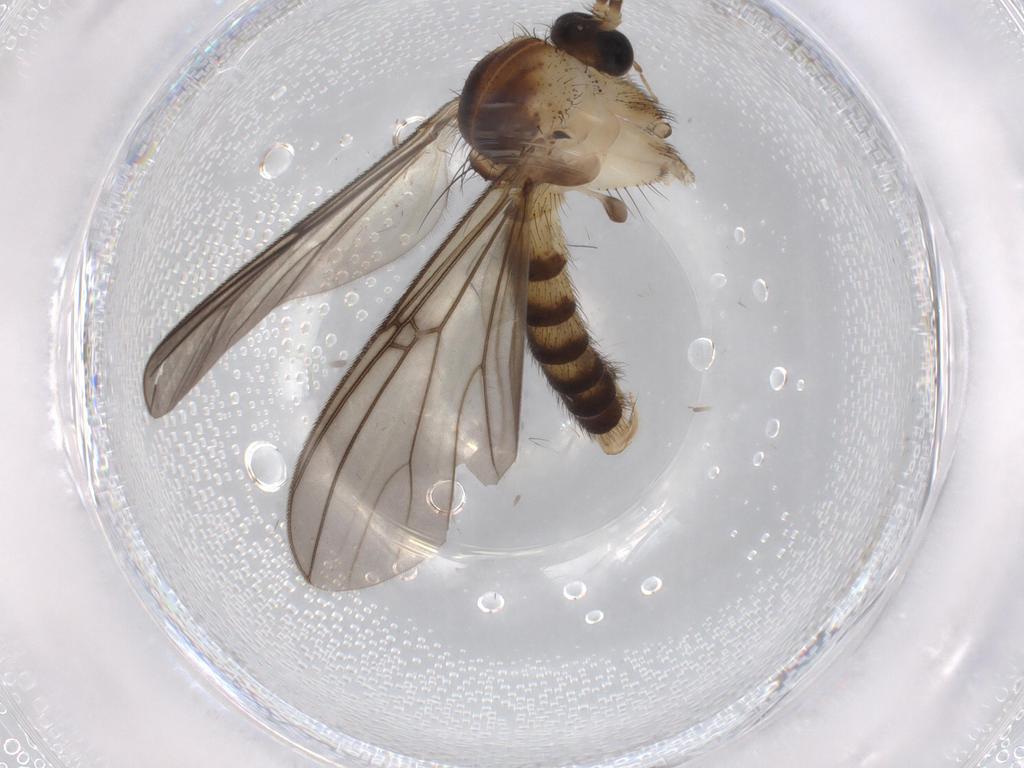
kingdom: Animalia
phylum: Arthropoda
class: Insecta
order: Diptera
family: Mycetophilidae
